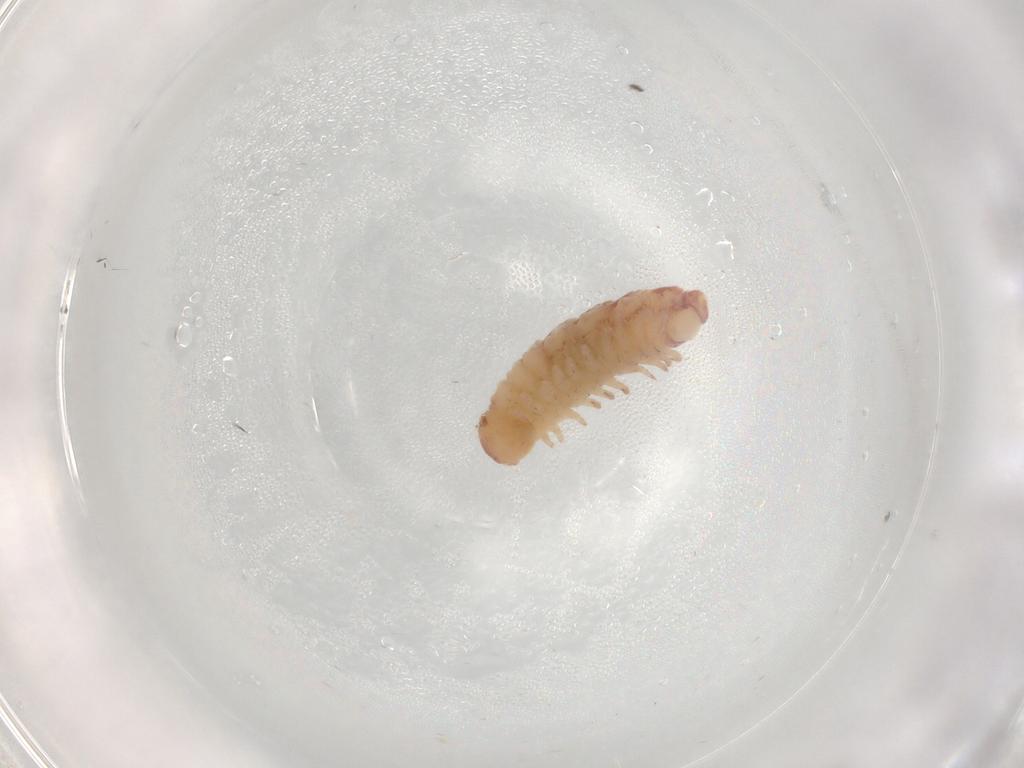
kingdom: Animalia
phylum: Arthropoda
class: Diplopoda
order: Polyxenida
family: Polyxenidae
